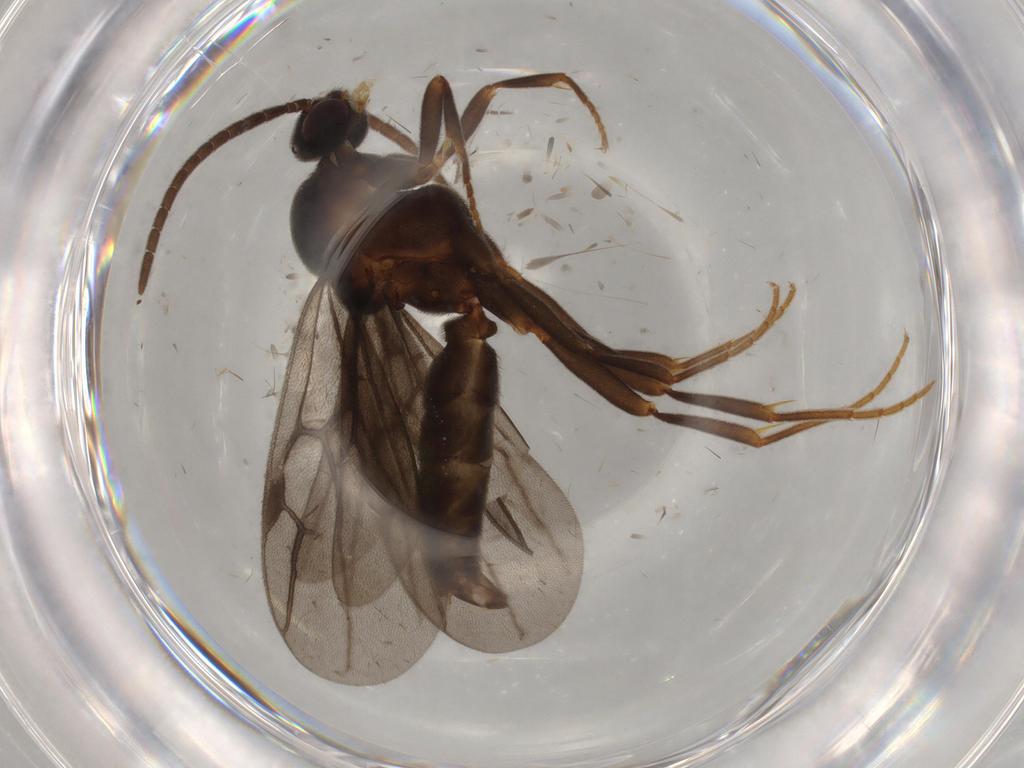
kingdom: Animalia
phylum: Arthropoda
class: Insecta
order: Hymenoptera
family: Formicidae
